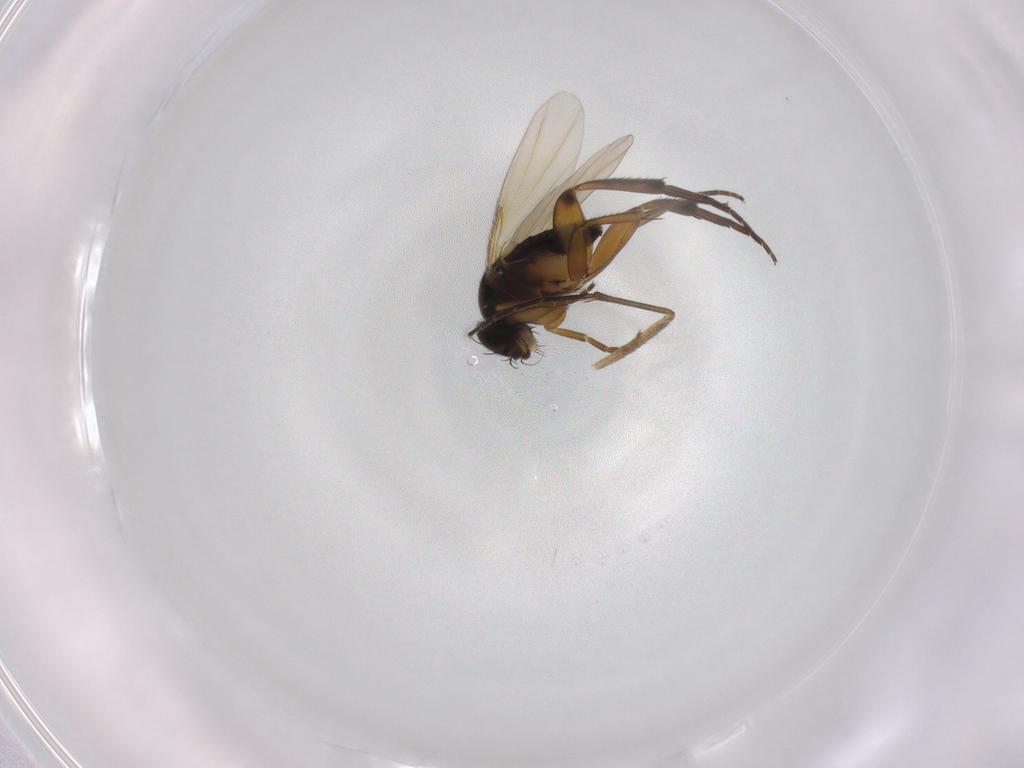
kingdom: Animalia
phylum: Arthropoda
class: Insecta
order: Diptera
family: Phoridae
